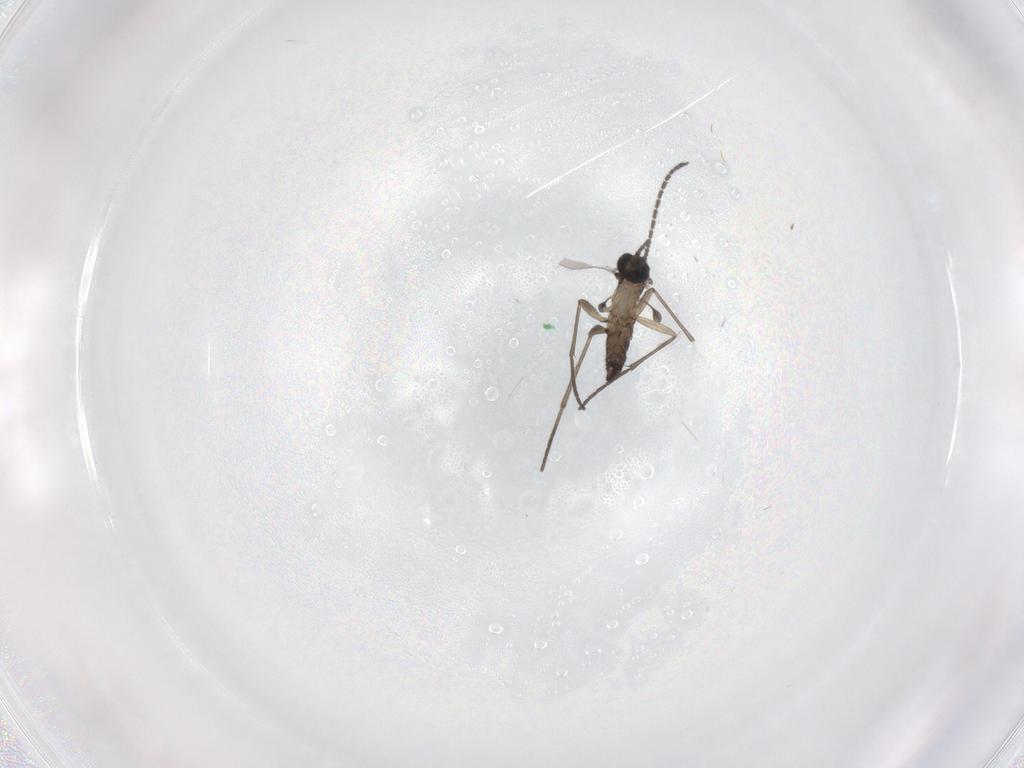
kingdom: Animalia
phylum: Arthropoda
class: Insecta
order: Diptera
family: Sciaridae
